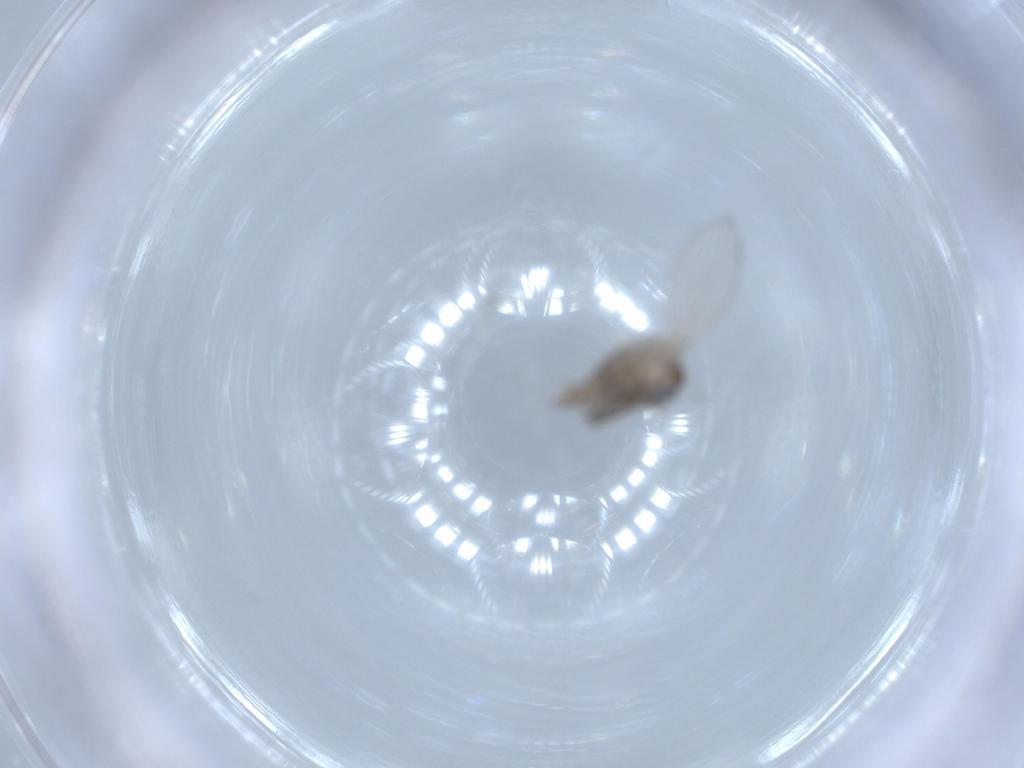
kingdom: Animalia
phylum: Arthropoda
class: Insecta
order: Diptera
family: Psychodidae
